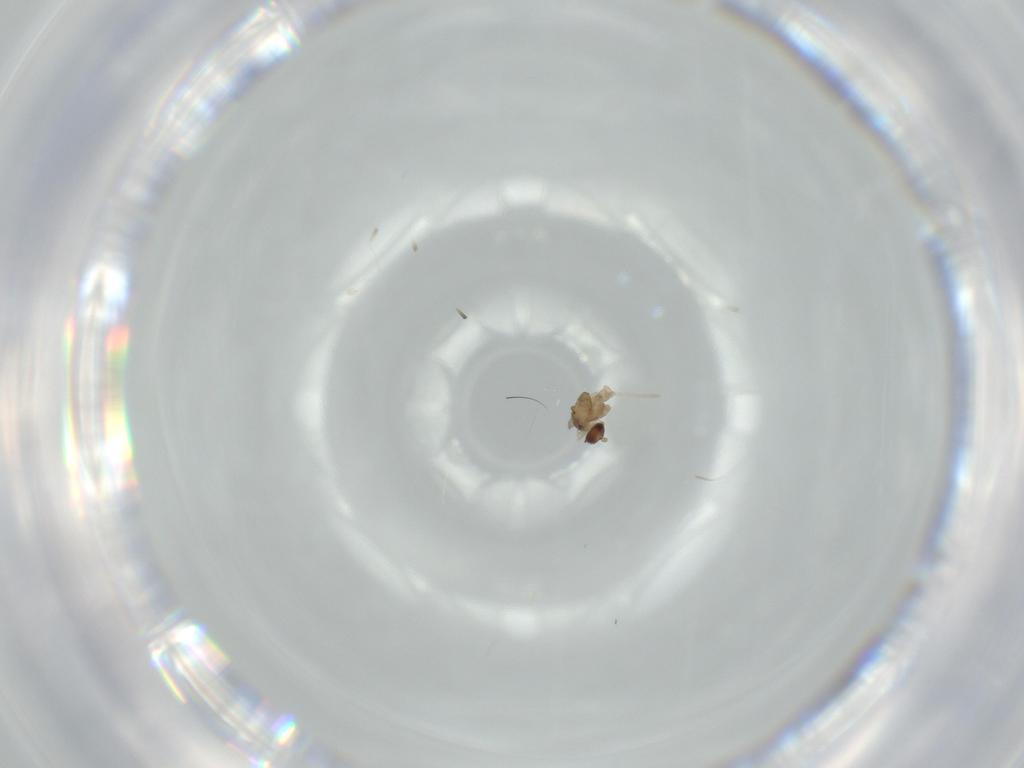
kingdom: Animalia
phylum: Arthropoda
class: Insecta
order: Diptera
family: Cecidomyiidae
